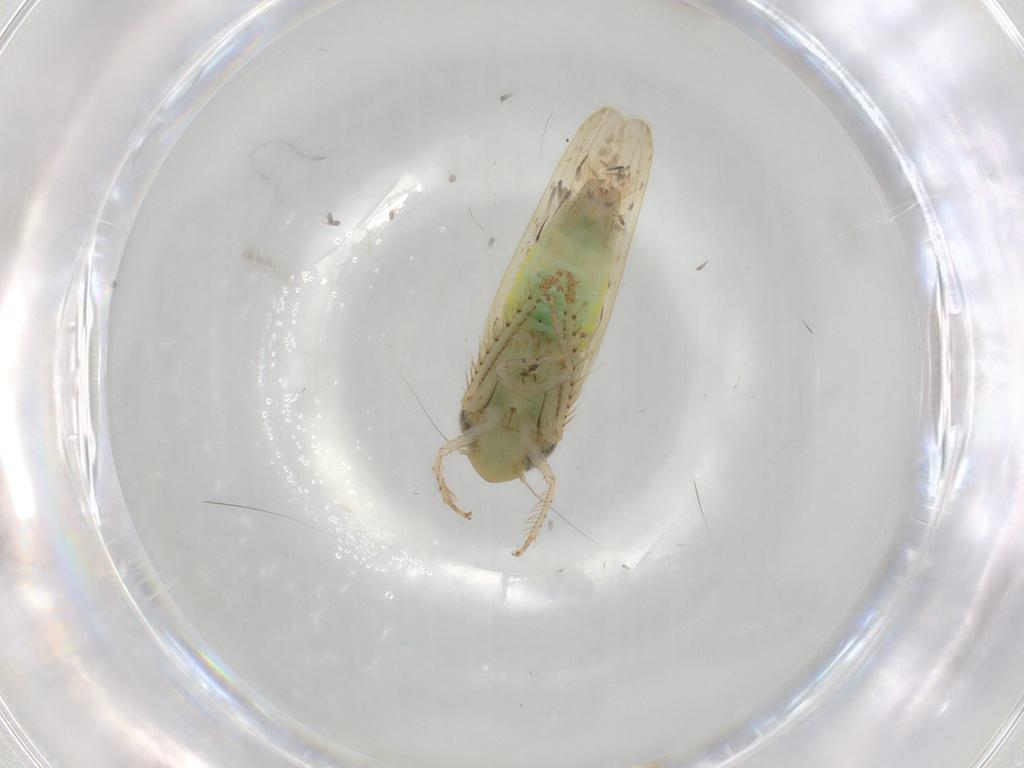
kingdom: Animalia
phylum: Arthropoda
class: Insecta
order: Hemiptera
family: Cicadellidae
